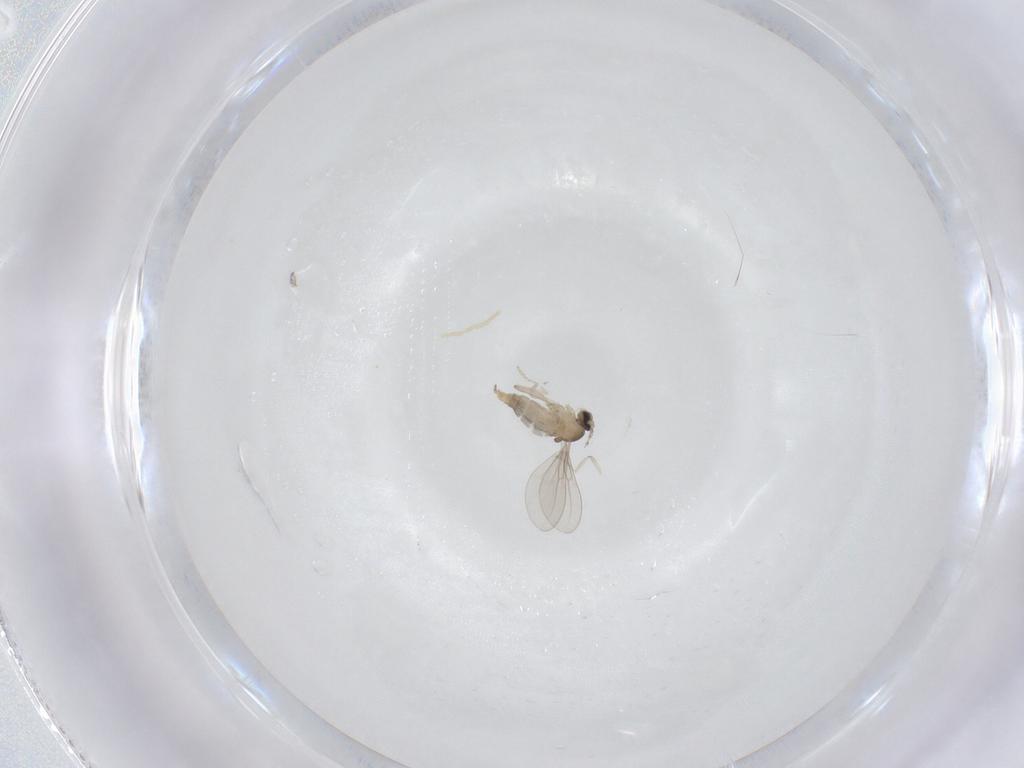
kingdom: Animalia
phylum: Arthropoda
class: Insecta
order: Diptera
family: Cecidomyiidae
